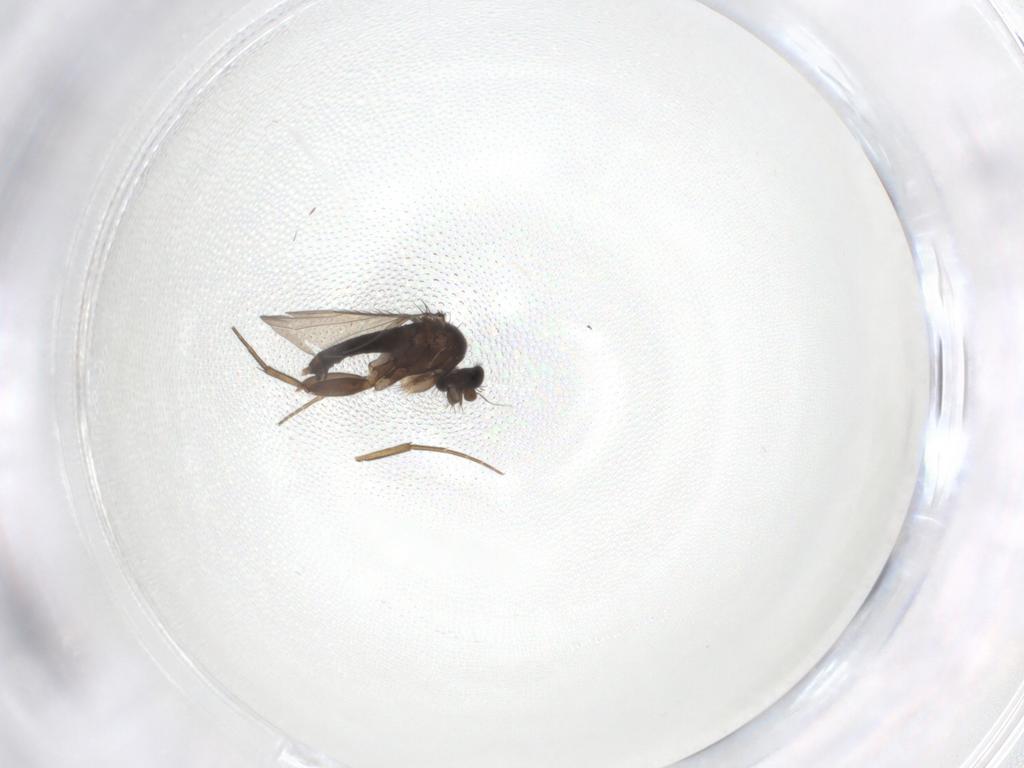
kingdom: Animalia
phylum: Arthropoda
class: Insecta
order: Diptera
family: Phoridae
